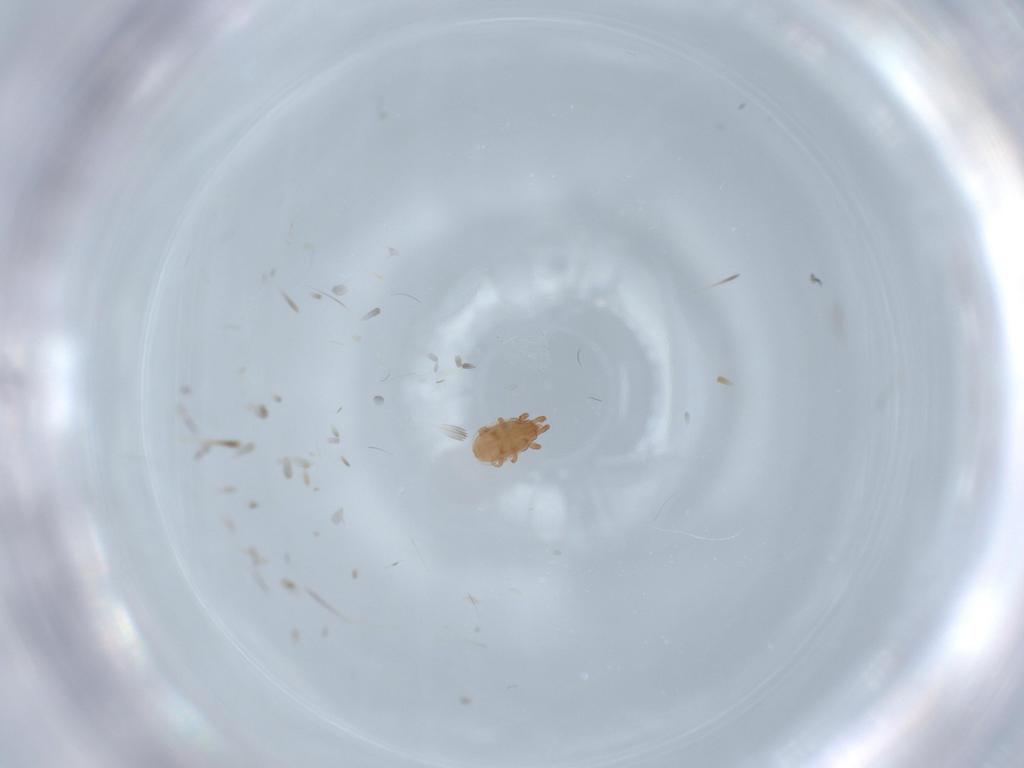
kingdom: Animalia
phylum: Arthropoda
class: Arachnida
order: Mesostigmata
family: Dinychidae
